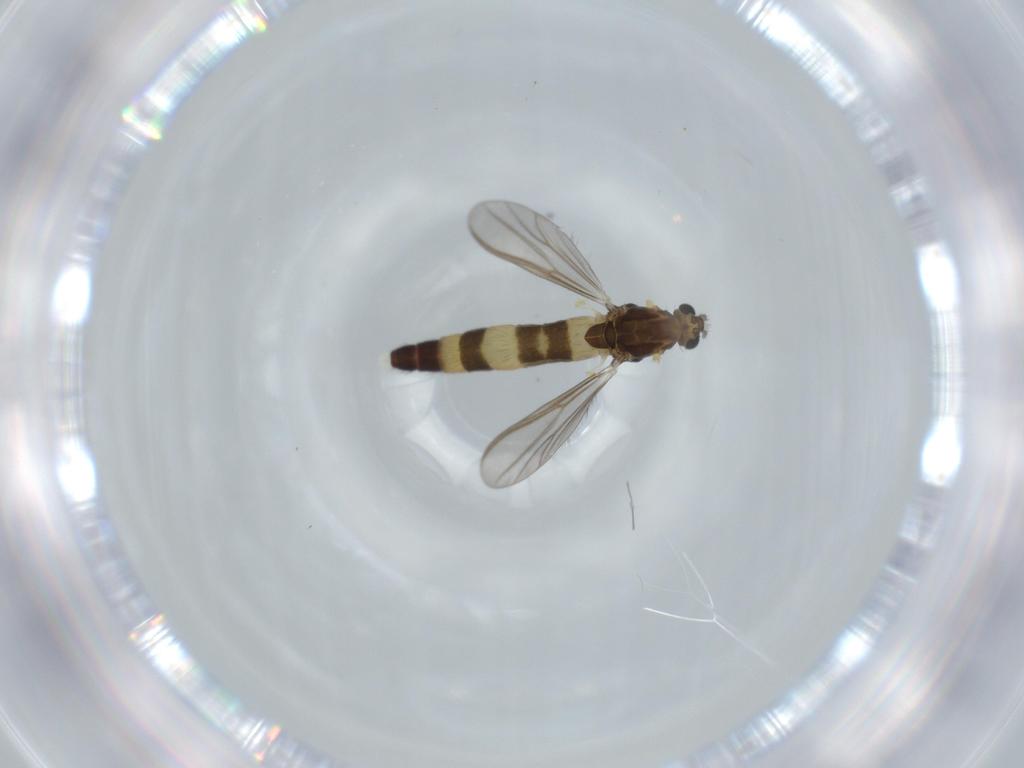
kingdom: Animalia
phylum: Arthropoda
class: Insecta
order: Diptera
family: Chironomidae
